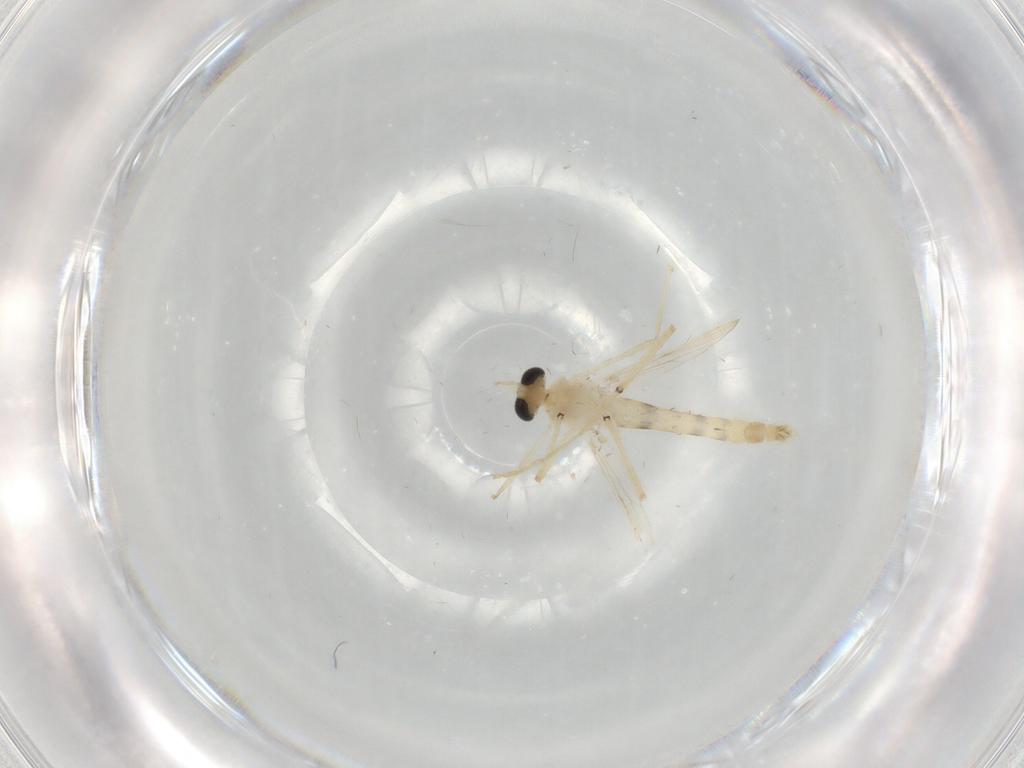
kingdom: Animalia
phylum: Arthropoda
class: Insecta
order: Diptera
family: Chironomidae
